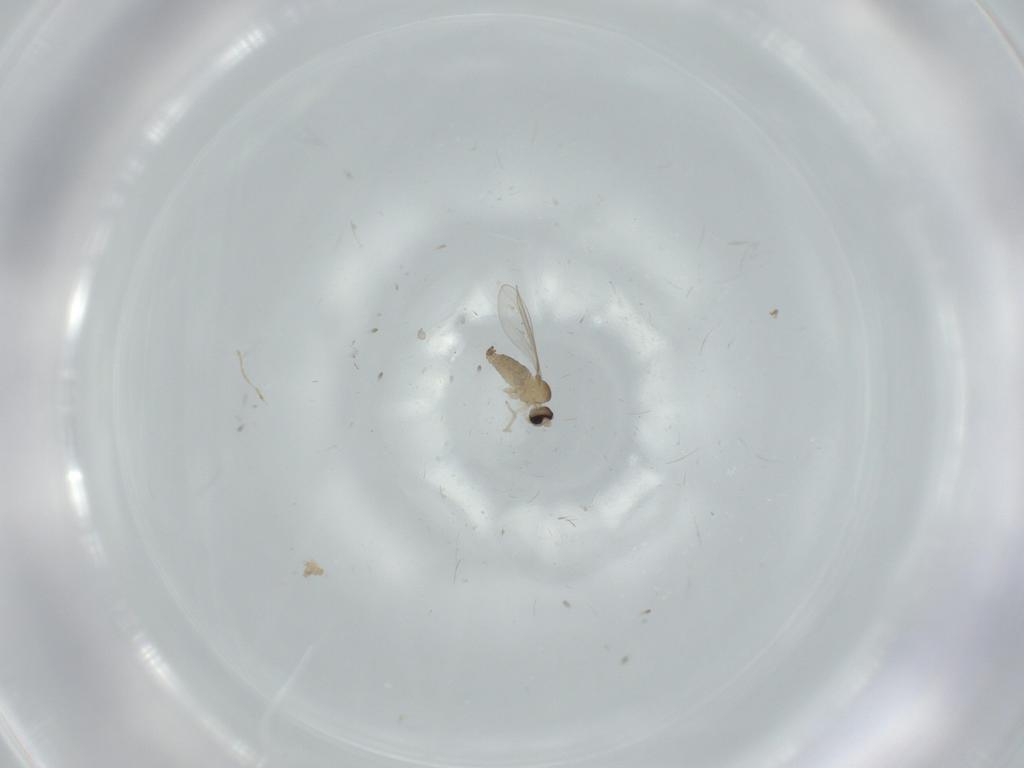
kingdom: Animalia
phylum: Arthropoda
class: Insecta
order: Diptera
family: Cecidomyiidae
